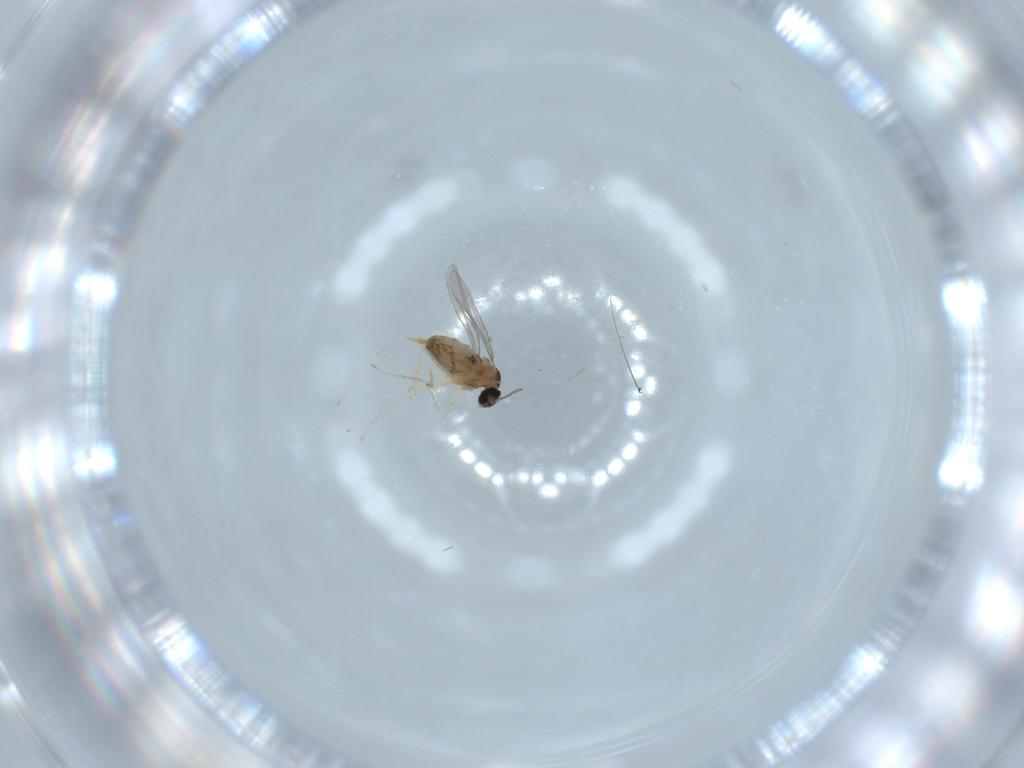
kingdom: Animalia
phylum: Arthropoda
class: Insecta
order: Diptera
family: Cecidomyiidae
